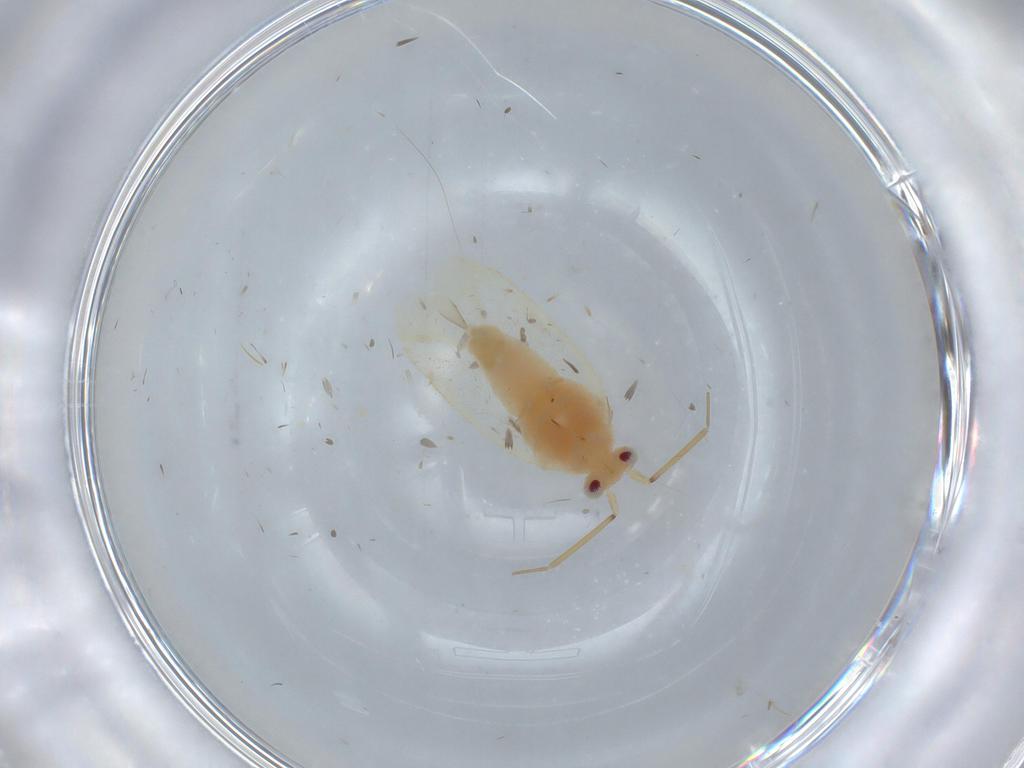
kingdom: Animalia
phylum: Arthropoda
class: Insecta
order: Hemiptera
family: Miridae
